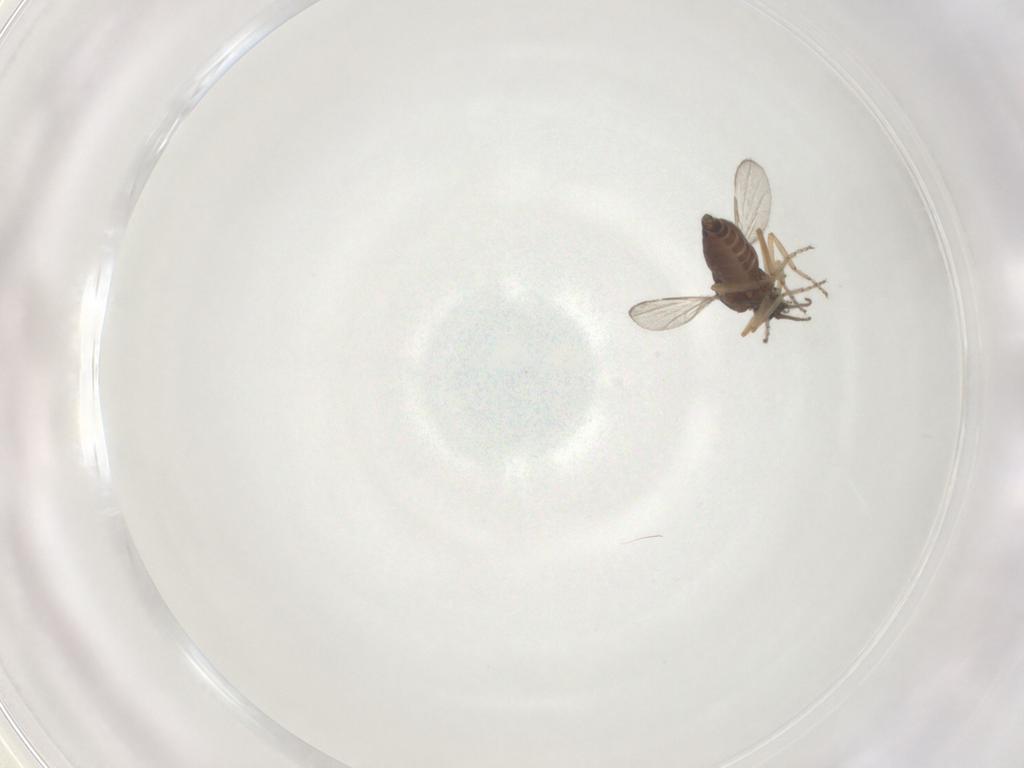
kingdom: Animalia
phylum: Arthropoda
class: Insecta
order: Diptera
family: Ceratopogonidae
